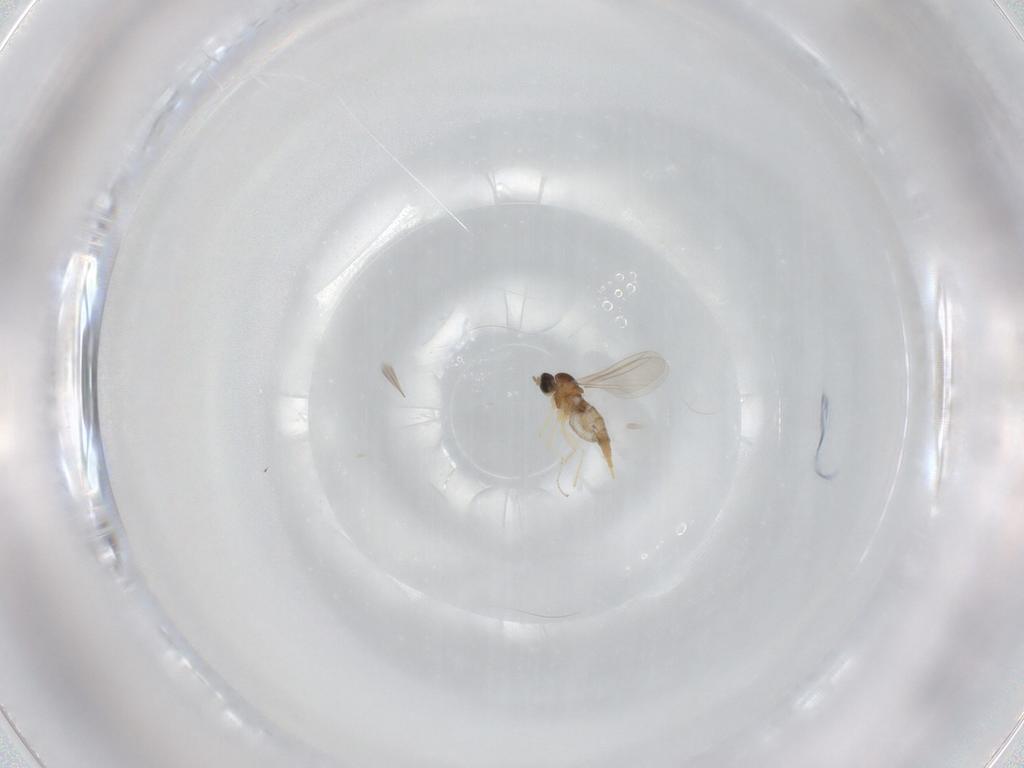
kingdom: Animalia
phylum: Arthropoda
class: Insecta
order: Diptera
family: Cecidomyiidae
